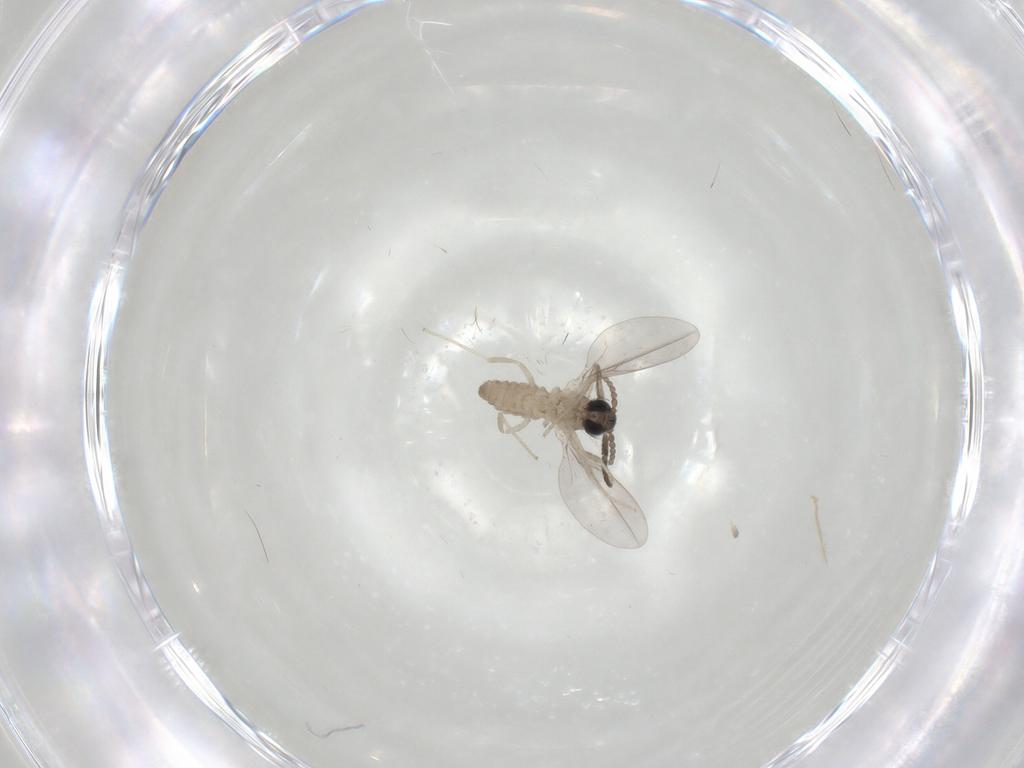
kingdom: Animalia
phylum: Arthropoda
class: Insecta
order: Diptera
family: Cecidomyiidae
